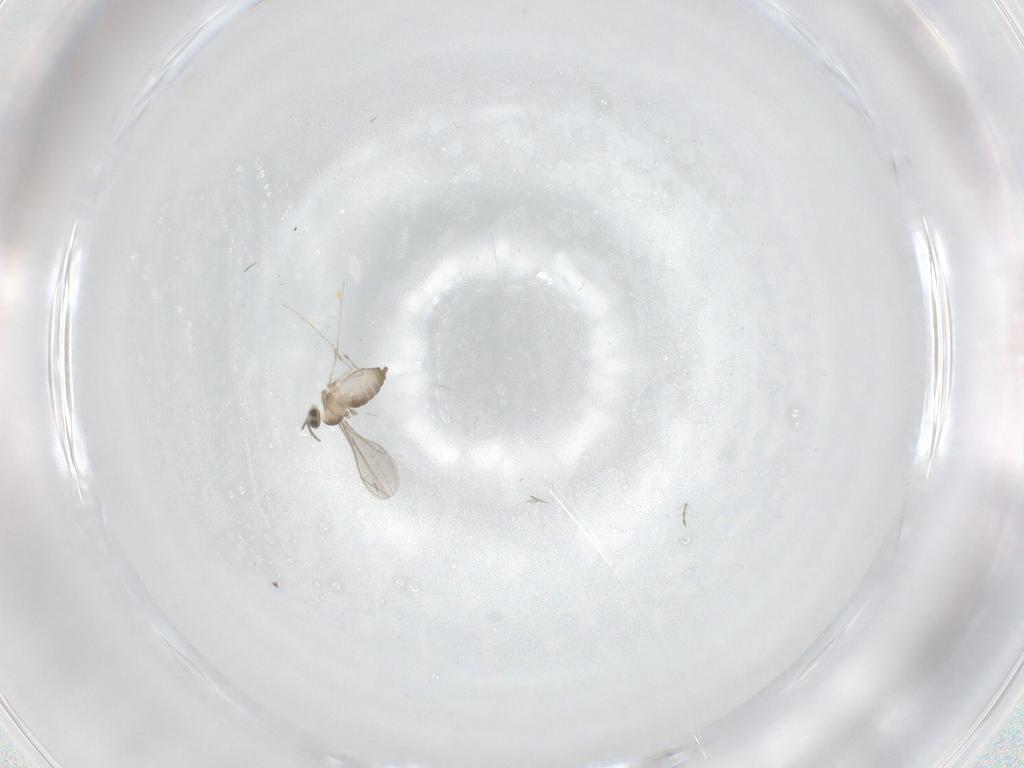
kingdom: Animalia
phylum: Arthropoda
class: Insecta
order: Diptera
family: Cecidomyiidae
